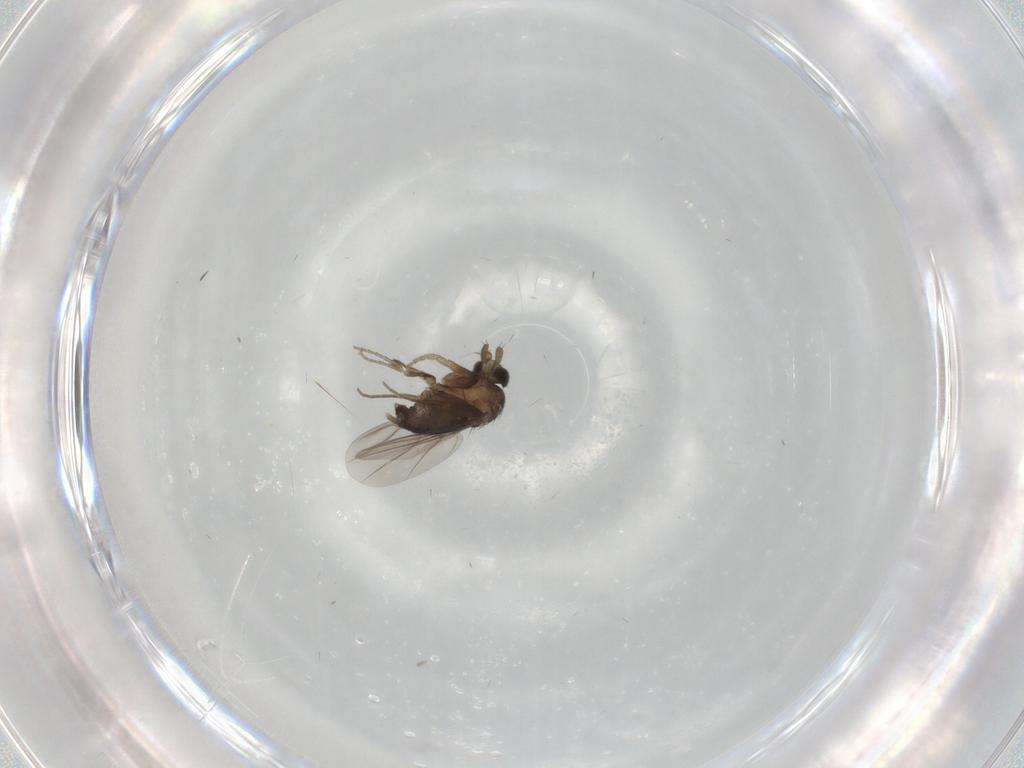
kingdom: Animalia
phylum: Arthropoda
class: Insecta
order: Diptera
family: Phoridae
